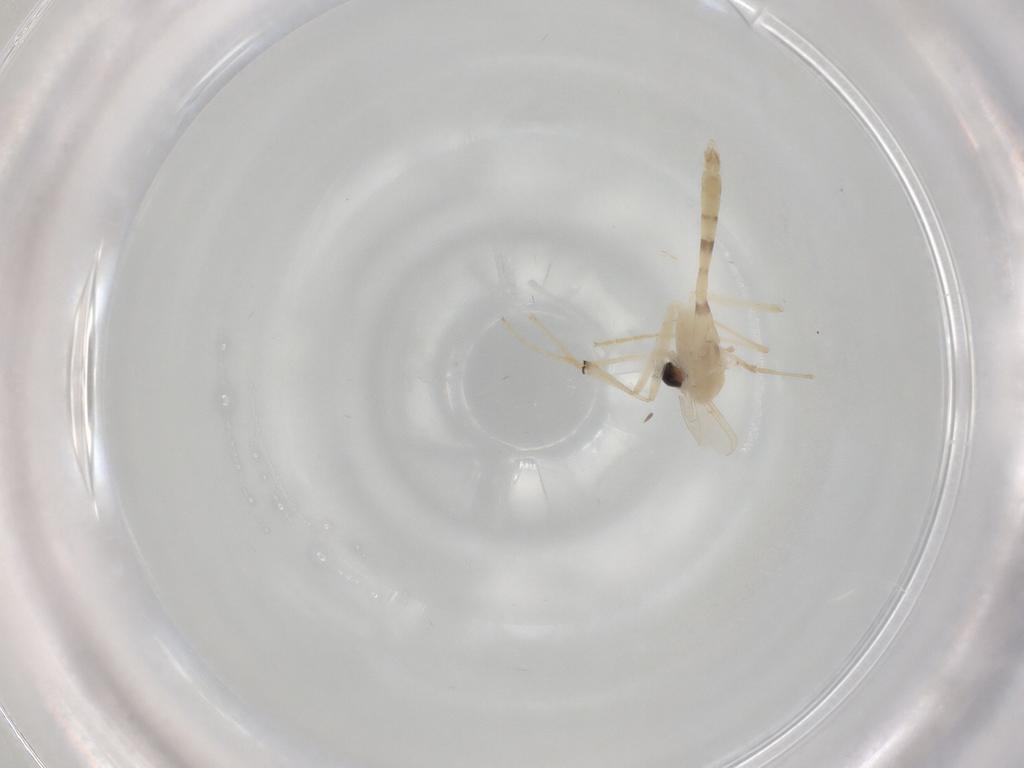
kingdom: Animalia
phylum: Arthropoda
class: Insecta
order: Diptera
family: Chironomidae
